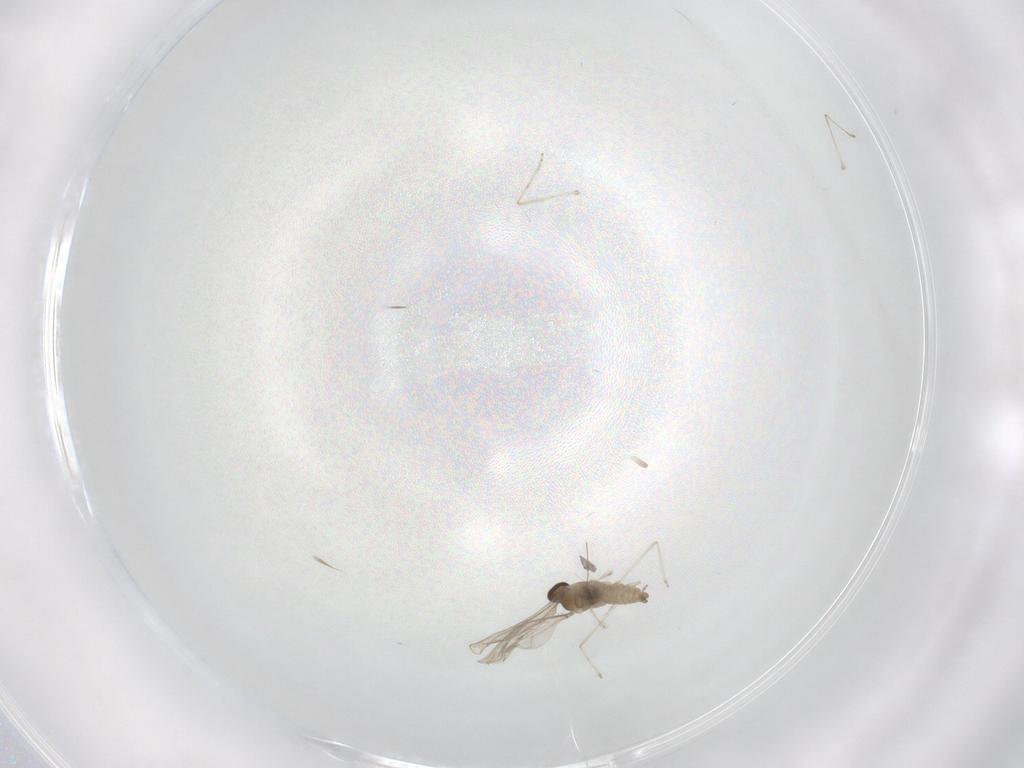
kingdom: Animalia
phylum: Arthropoda
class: Insecta
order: Diptera
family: Cecidomyiidae
